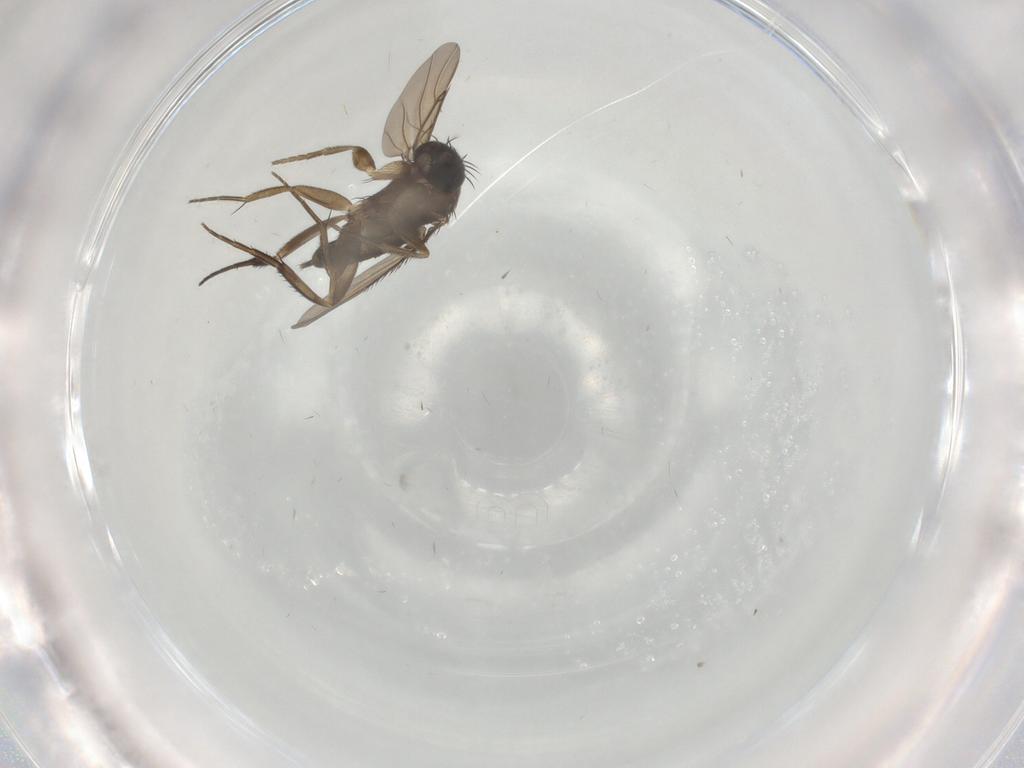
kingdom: Animalia
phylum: Arthropoda
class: Insecta
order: Diptera
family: Phoridae
